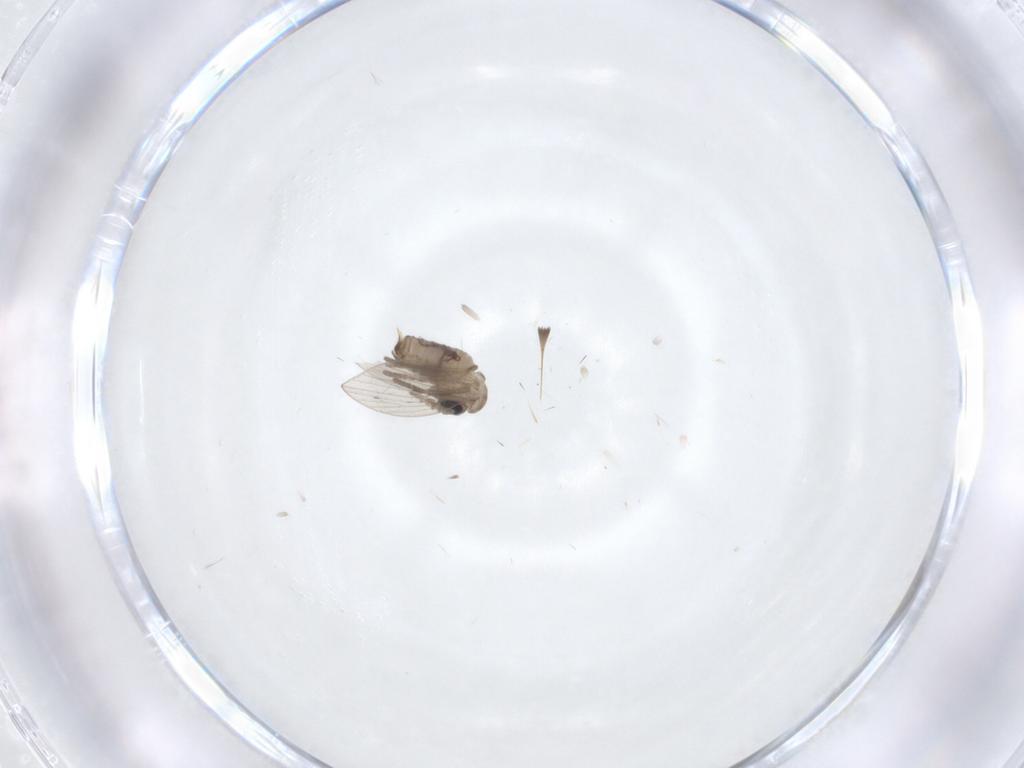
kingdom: Animalia
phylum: Arthropoda
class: Insecta
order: Diptera
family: Psychodidae
